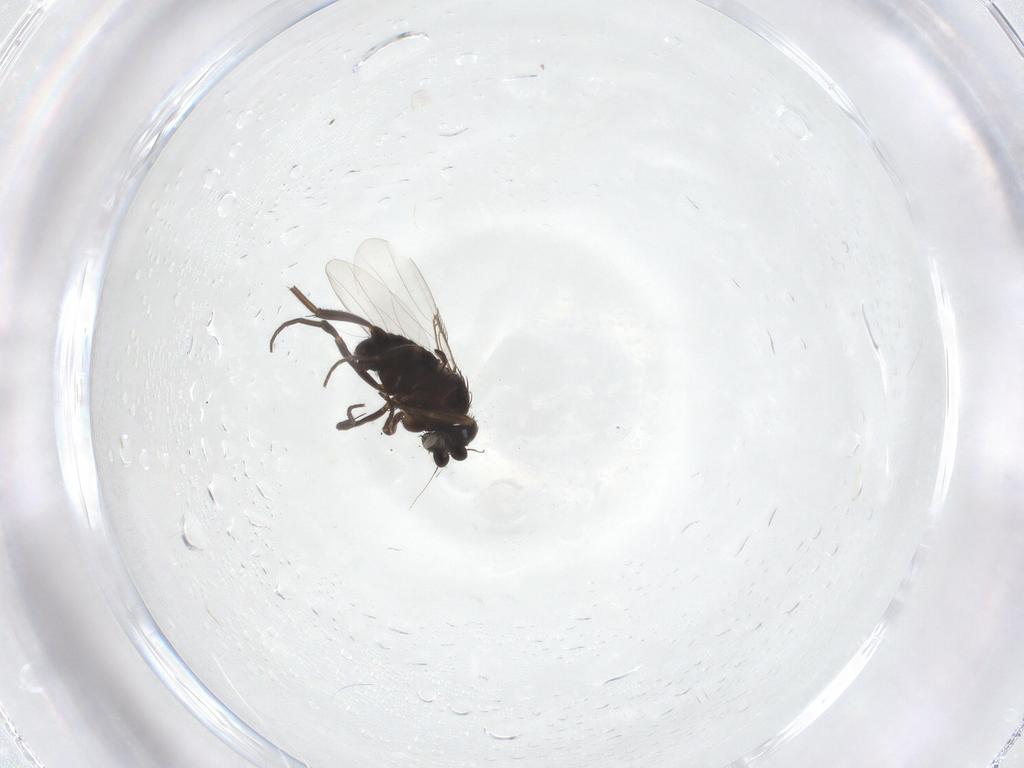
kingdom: Animalia
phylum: Arthropoda
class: Insecta
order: Diptera
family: Phoridae
